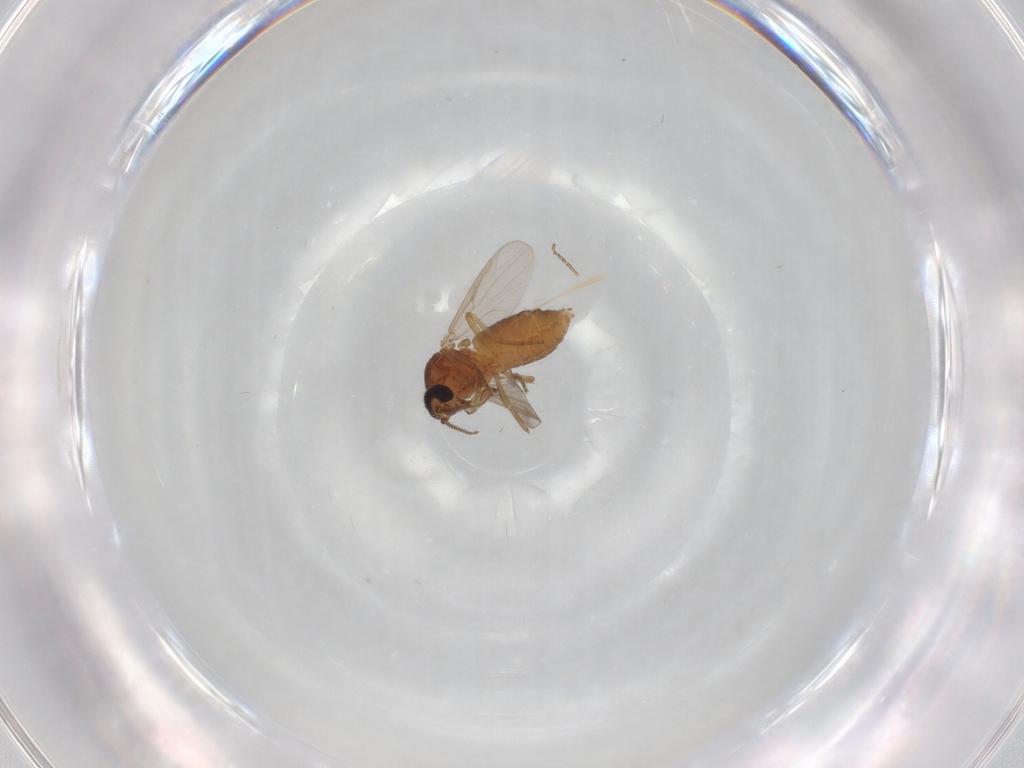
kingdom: Animalia
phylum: Arthropoda
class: Insecta
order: Diptera
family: Ceratopogonidae
